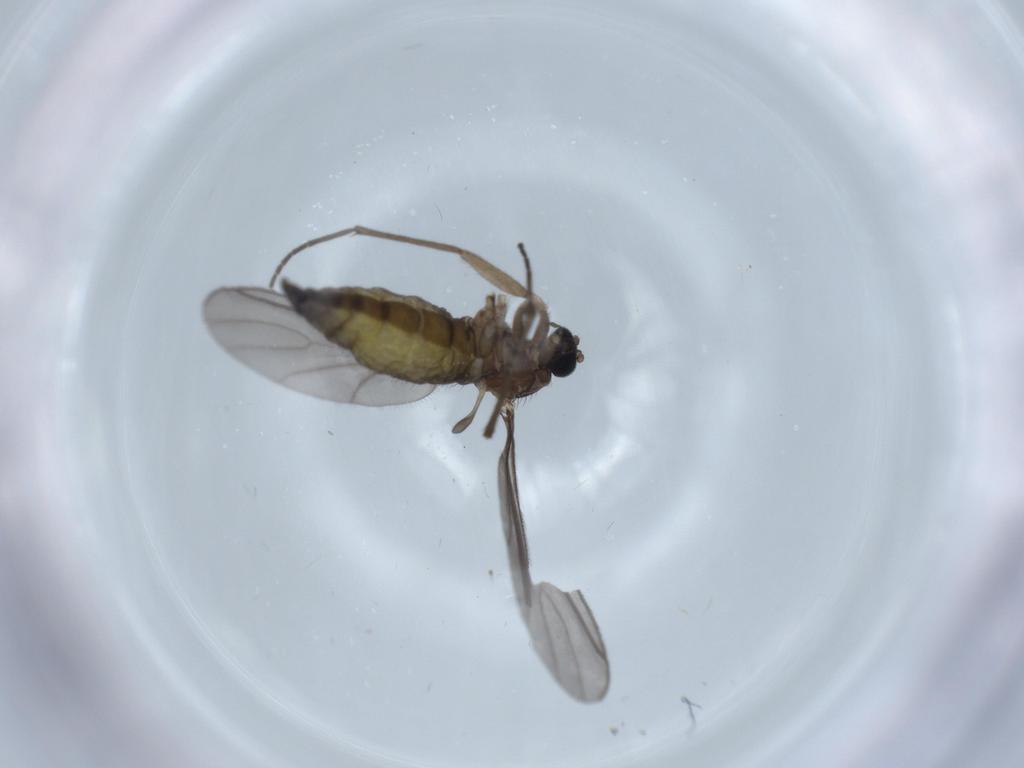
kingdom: Animalia
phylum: Arthropoda
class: Insecta
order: Diptera
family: Sciaridae
